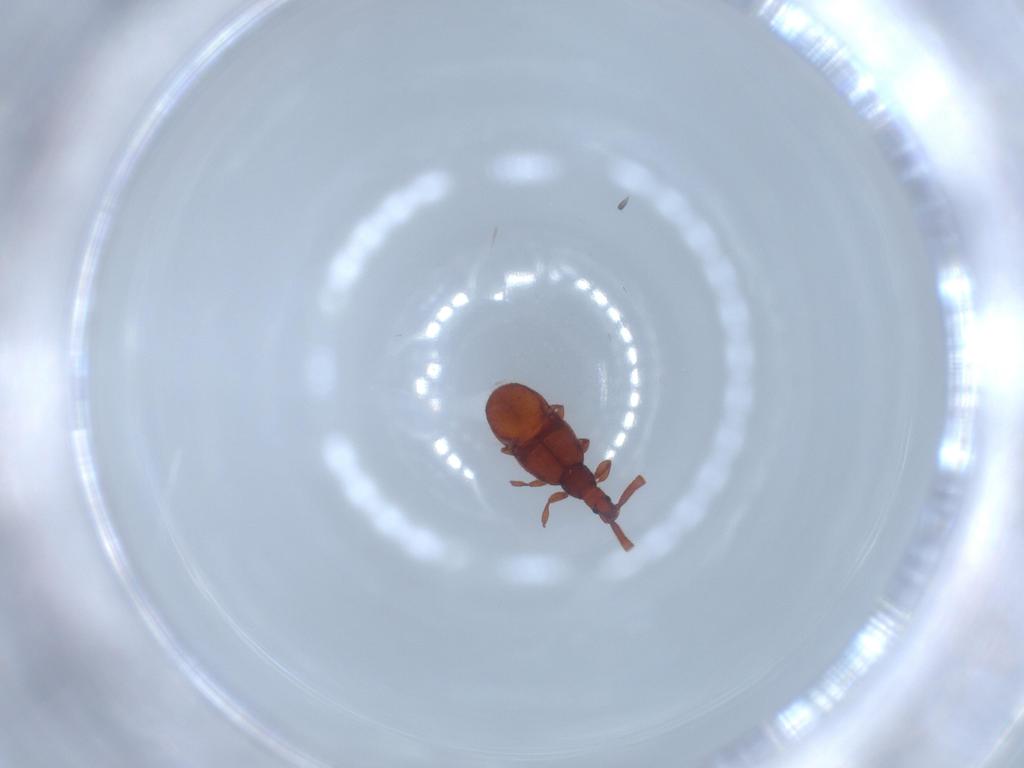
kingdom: Animalia
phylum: Arthropoda
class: Insecta
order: Coleoptera
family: Staphylinidae
